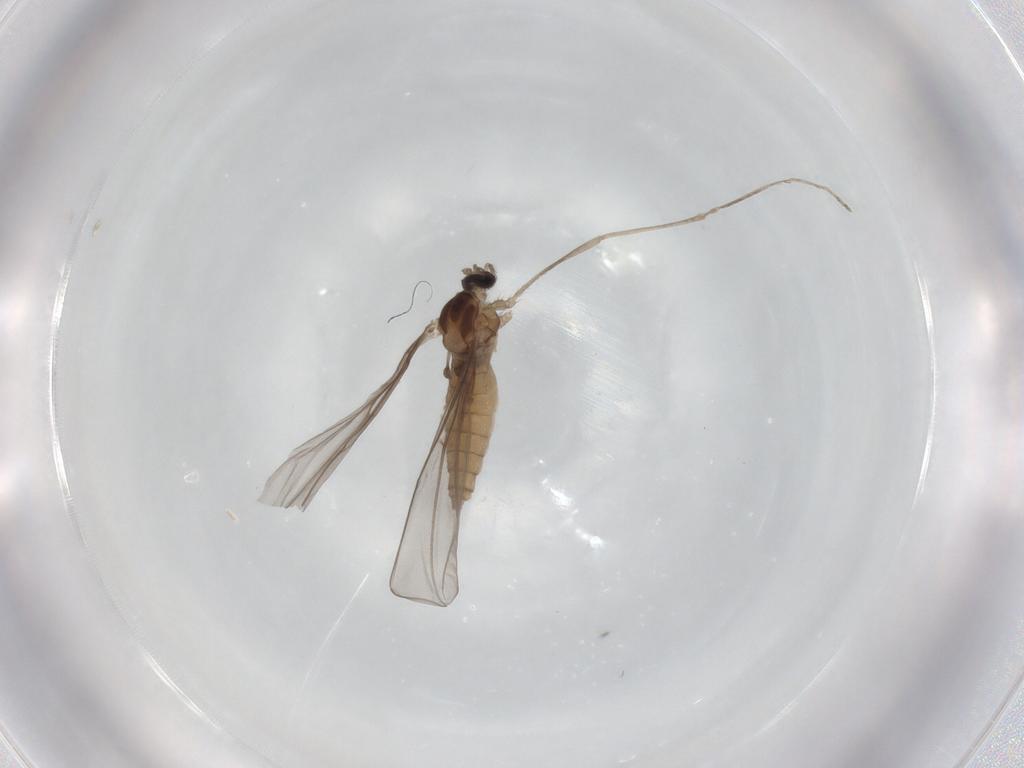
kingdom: Animalia
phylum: Arthropoda
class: Insecta
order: Diptera
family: Cecidomyiidae
